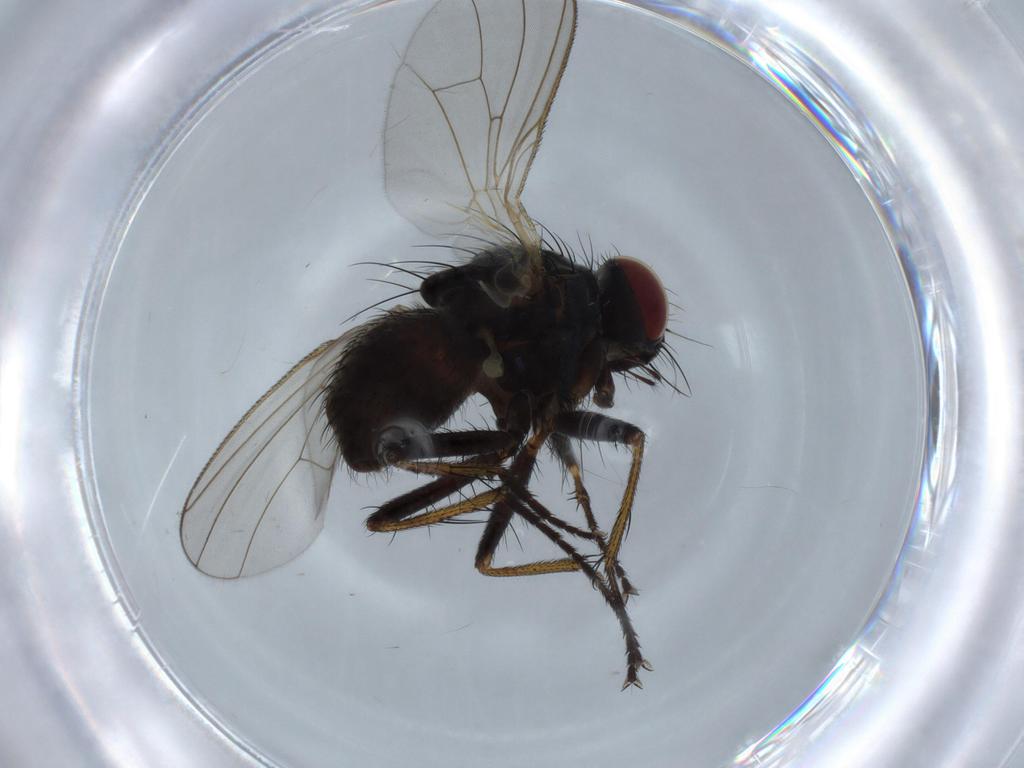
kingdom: Animalia
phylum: Arthropoda
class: Insecta
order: Diptera
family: Muscidae
